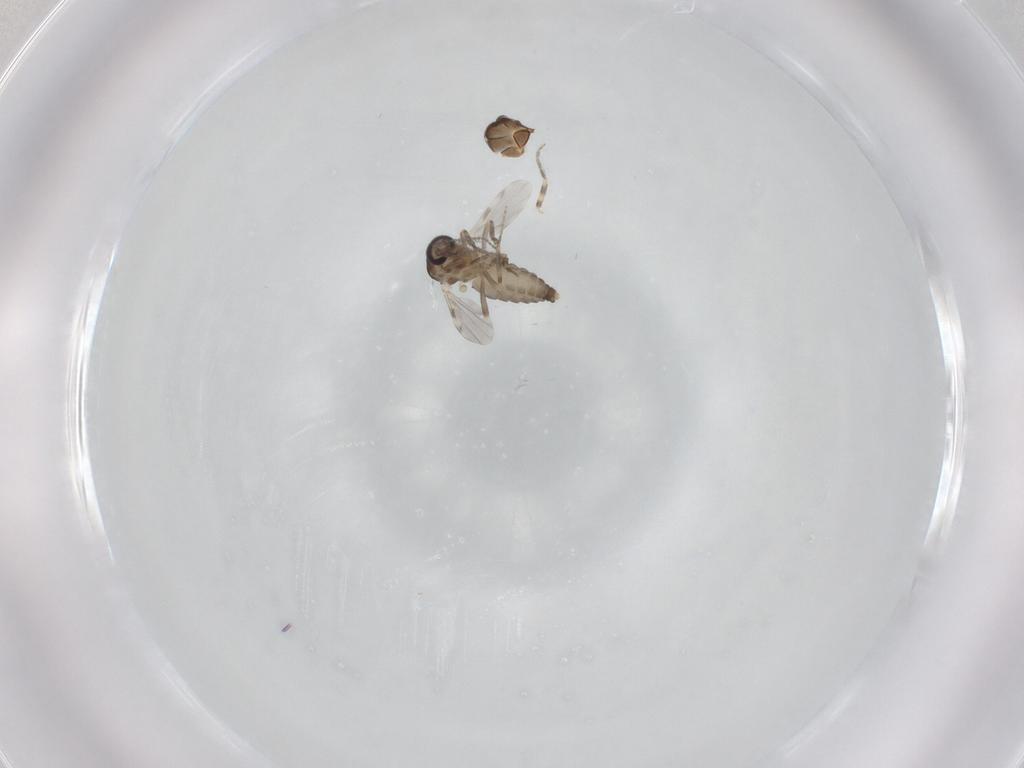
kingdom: Animalia
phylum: Arthropoda
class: Insecta
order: Diptera
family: Ceratopogonidae
